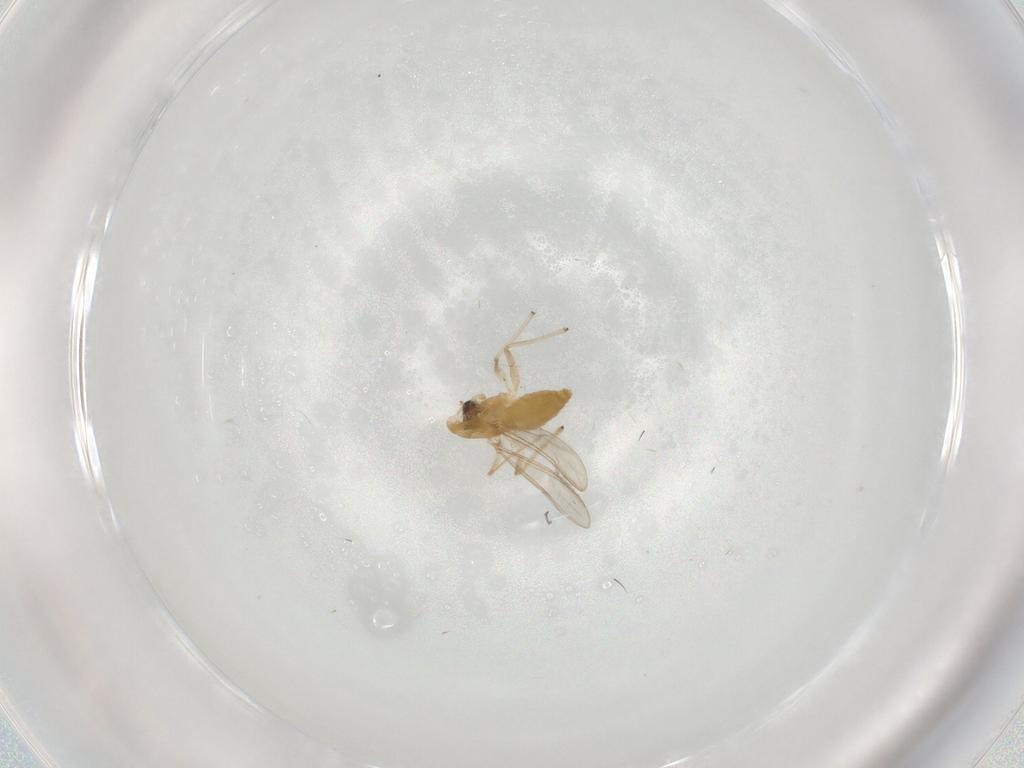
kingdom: Animalia
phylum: Arthropoda
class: Insecta
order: Diptera
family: Chironomidae
